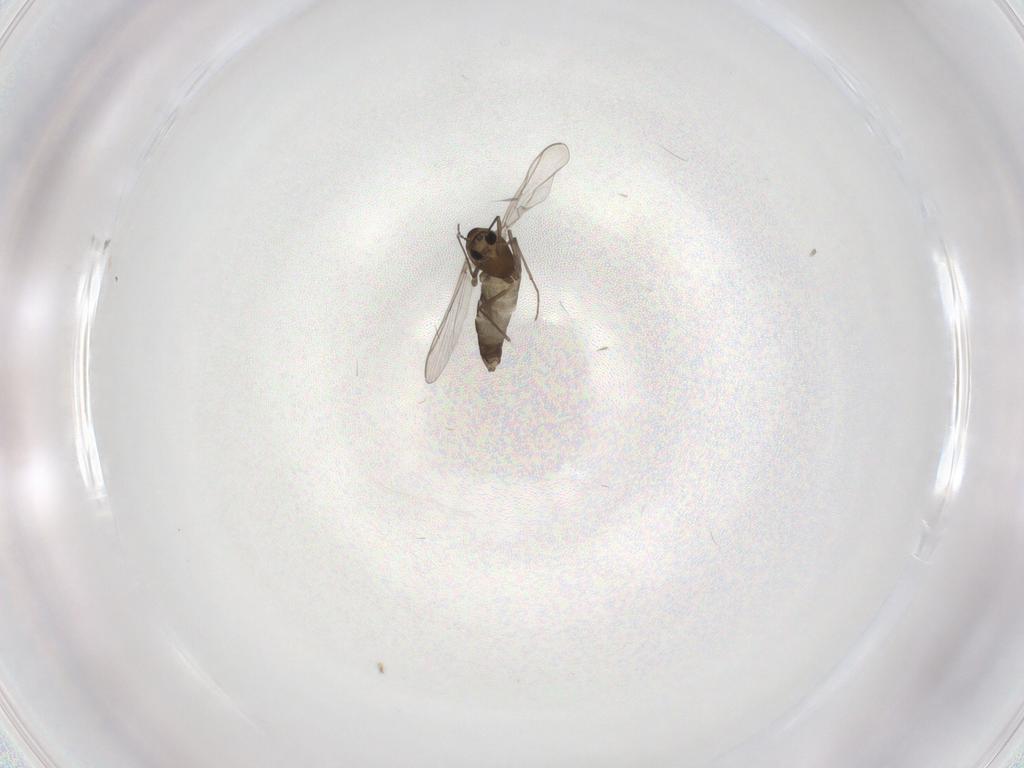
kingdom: Animalia
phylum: Arthropoda
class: Insecta
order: Diptera
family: Chironomidae
